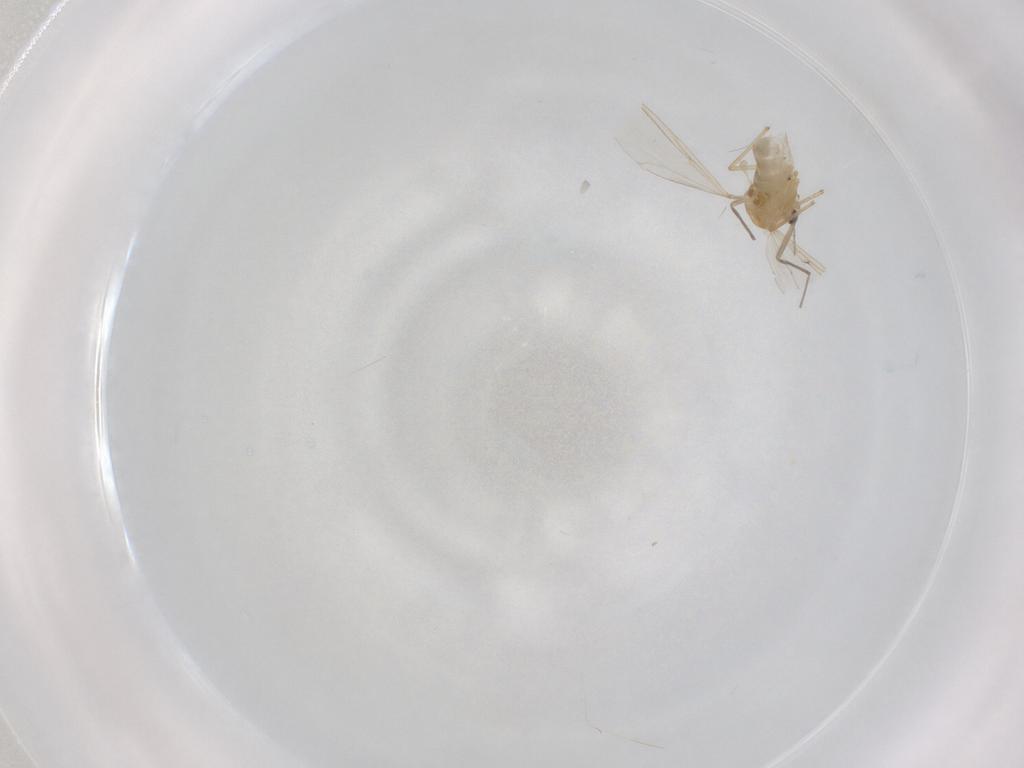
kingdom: Animalia
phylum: Arthropoda
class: Insecta
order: Diptera
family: Chironomidae
